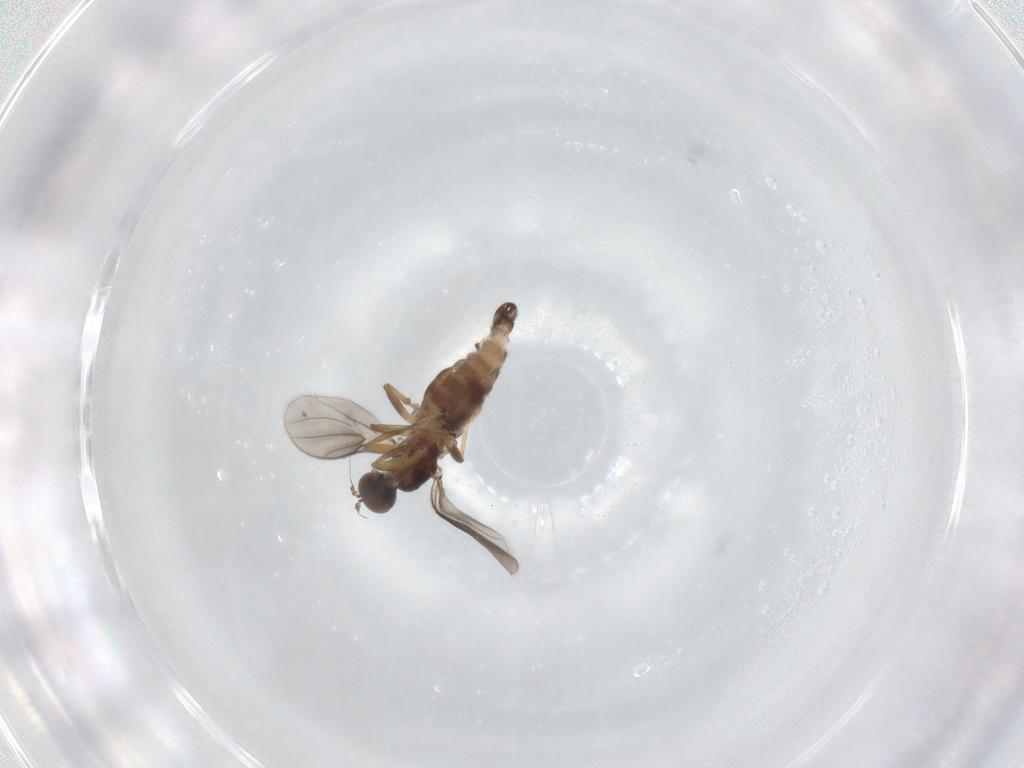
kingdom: Animalia
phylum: Arthropoda
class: Insecta
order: Diptera
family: Hybotidae
